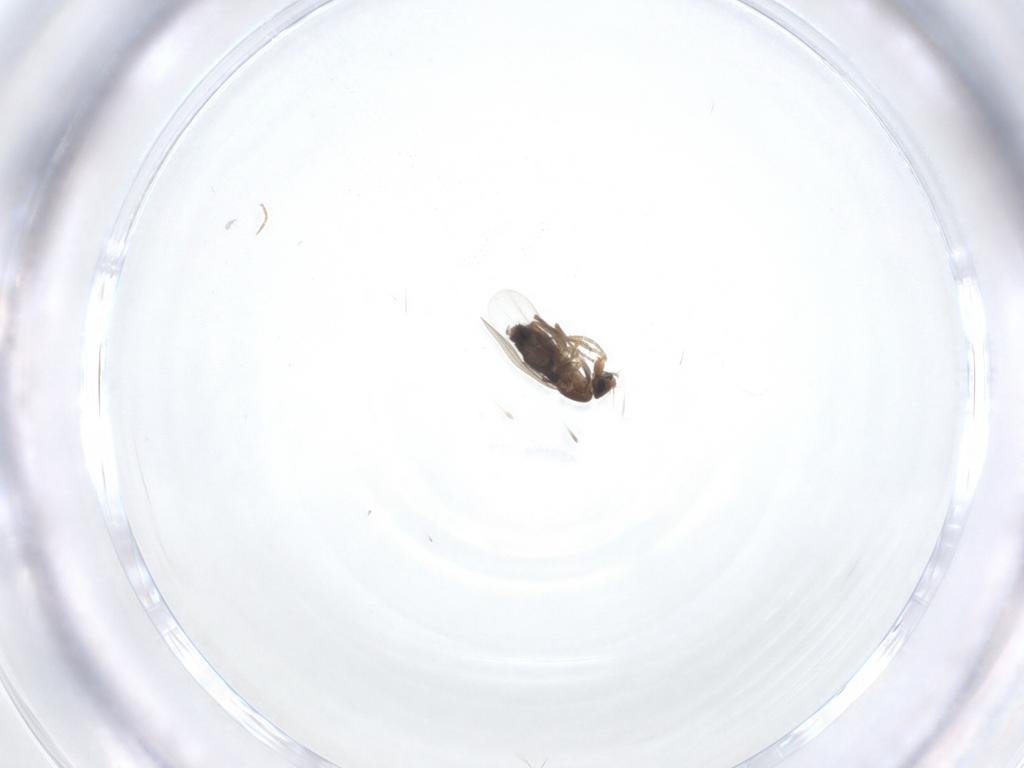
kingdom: Animalia
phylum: Arthropoda
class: Insecta
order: Diptera
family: Phoridae
